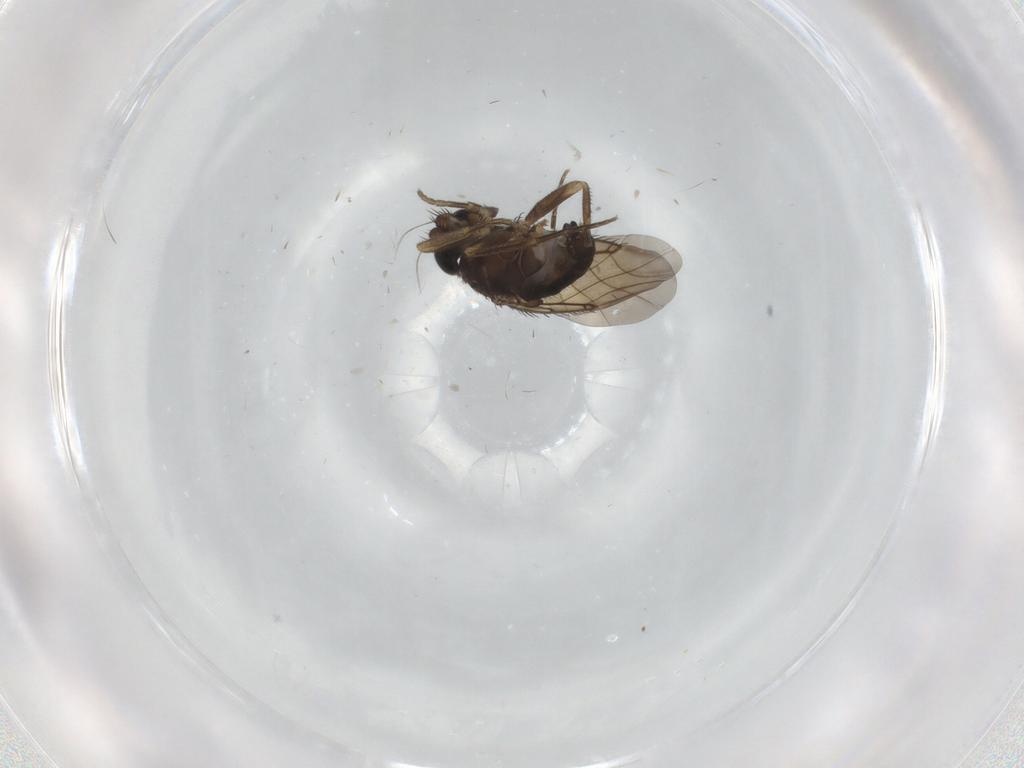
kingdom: Animalia
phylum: Arthropoda
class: Insecta
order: Diptera
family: Phoridae
